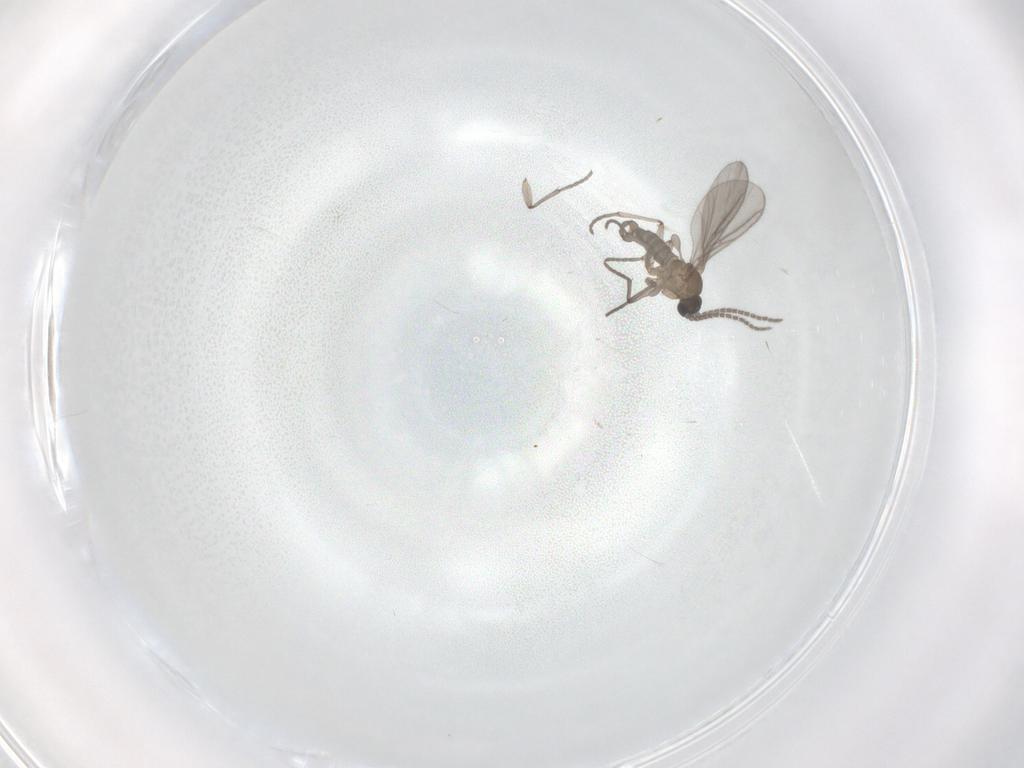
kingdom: Animalia
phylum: Arthropoda
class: Insecta
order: Diptera
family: Sciaridae
